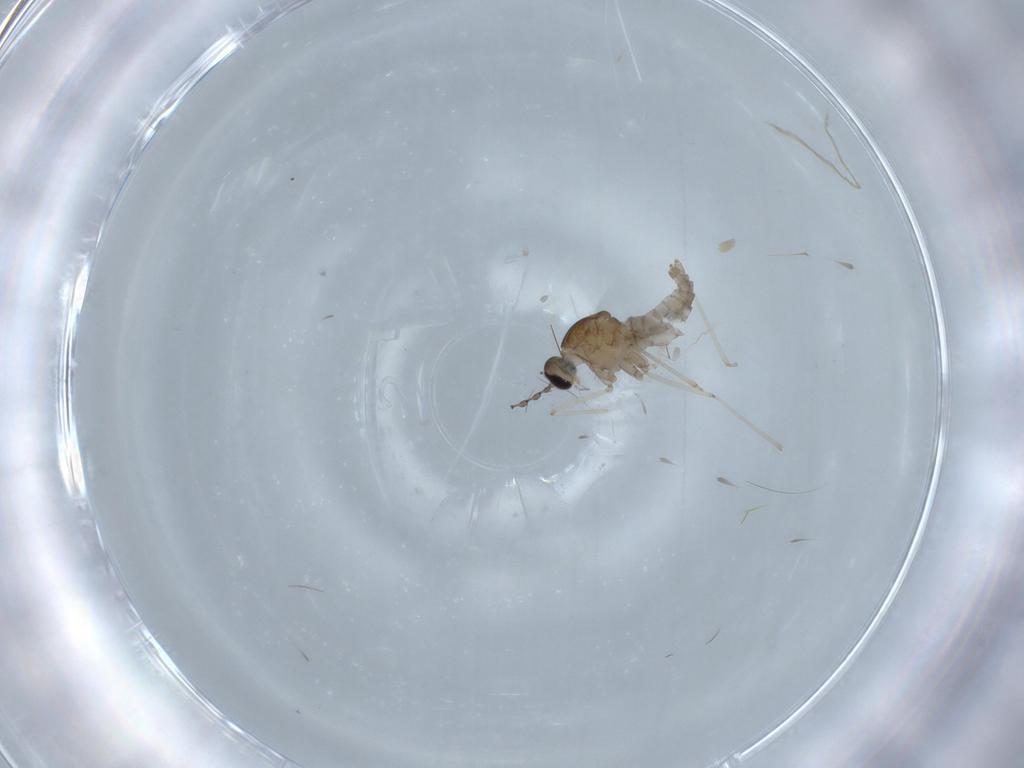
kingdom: Animalia
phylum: Arthropoda
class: Insecta
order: Diptera
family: Cecidomyiidae
